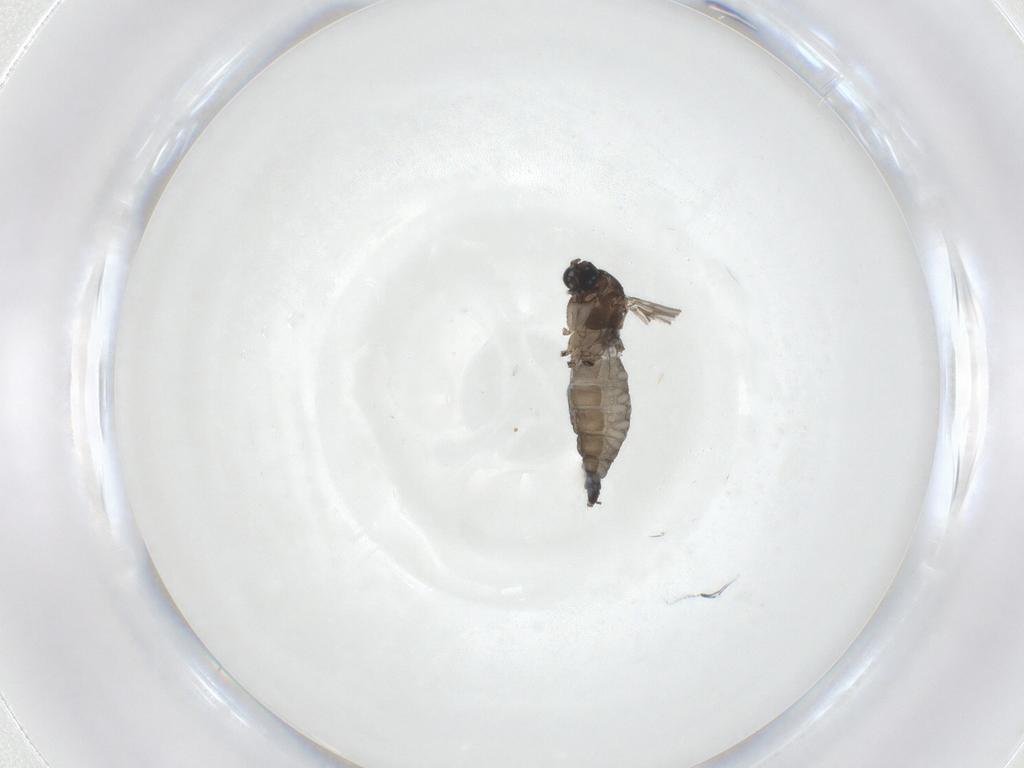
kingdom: Animalia
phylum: Arthropoda
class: Insecta
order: Diptera
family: Sciaridae
